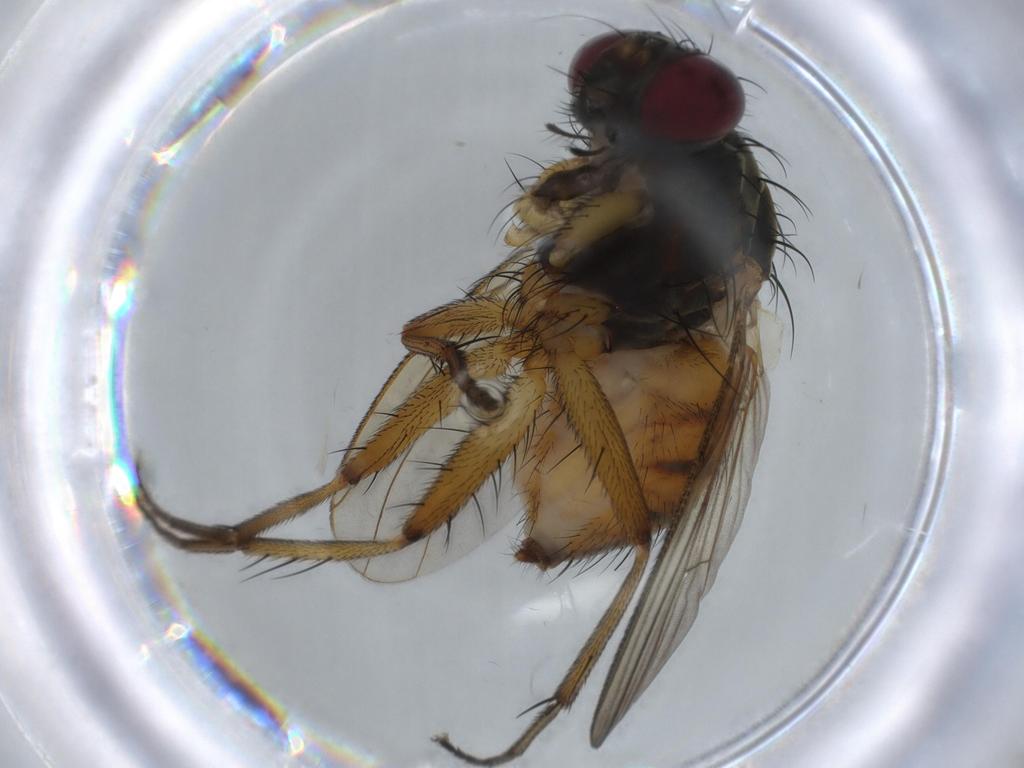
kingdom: Animalia
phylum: Arthropoda
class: Insecta
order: Diptera
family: Muscidae
